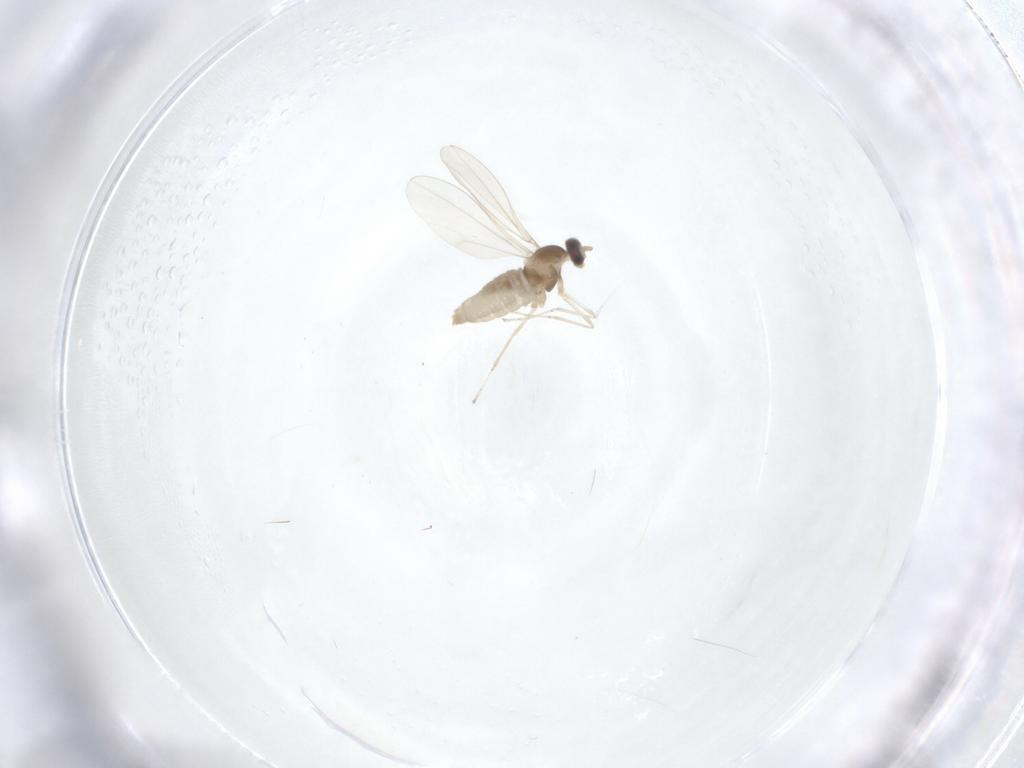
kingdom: Animalia
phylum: Arthropoda
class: Insecta
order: Diptera
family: Cecidomyiidae
